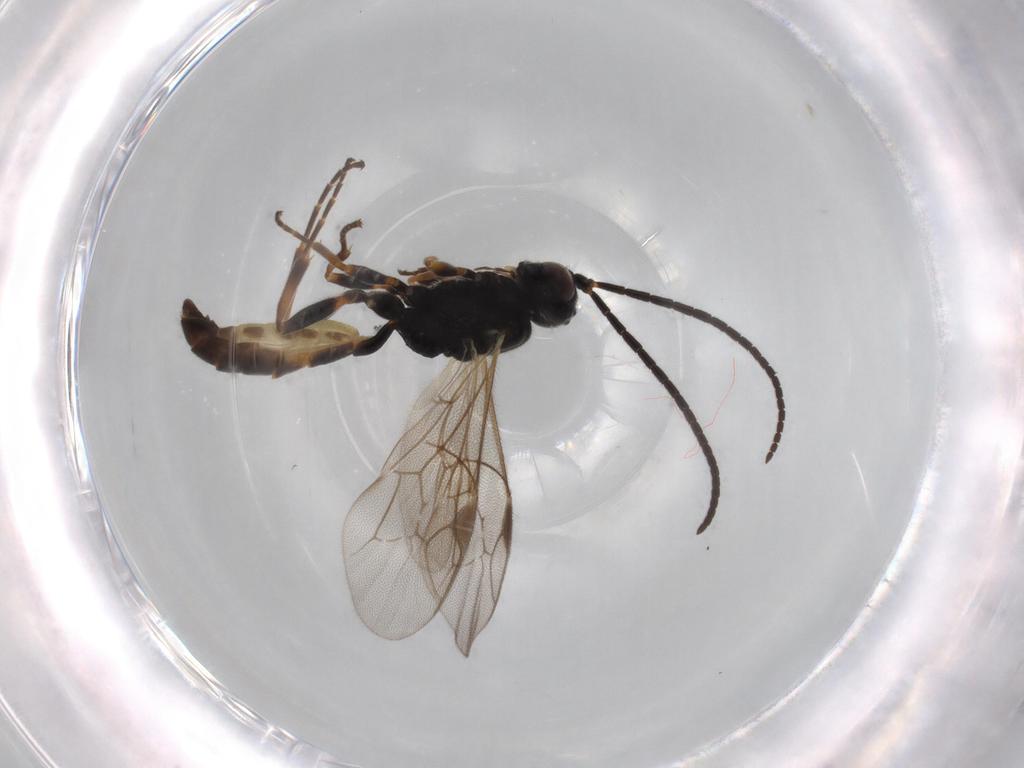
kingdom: Animalia
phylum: Arthropoda
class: Insecta
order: Hymenoptera
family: Ichneumonidae
